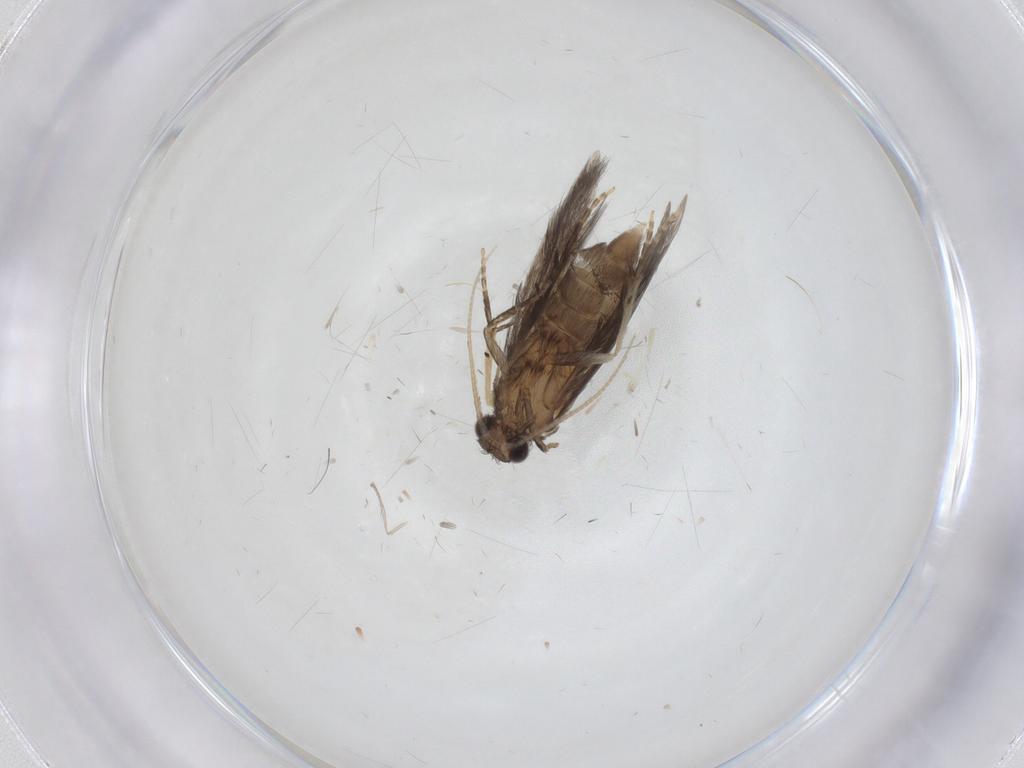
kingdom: Animalia
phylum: Arthropoda
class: Insecta
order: Trichoptera
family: Hydroptilidae
